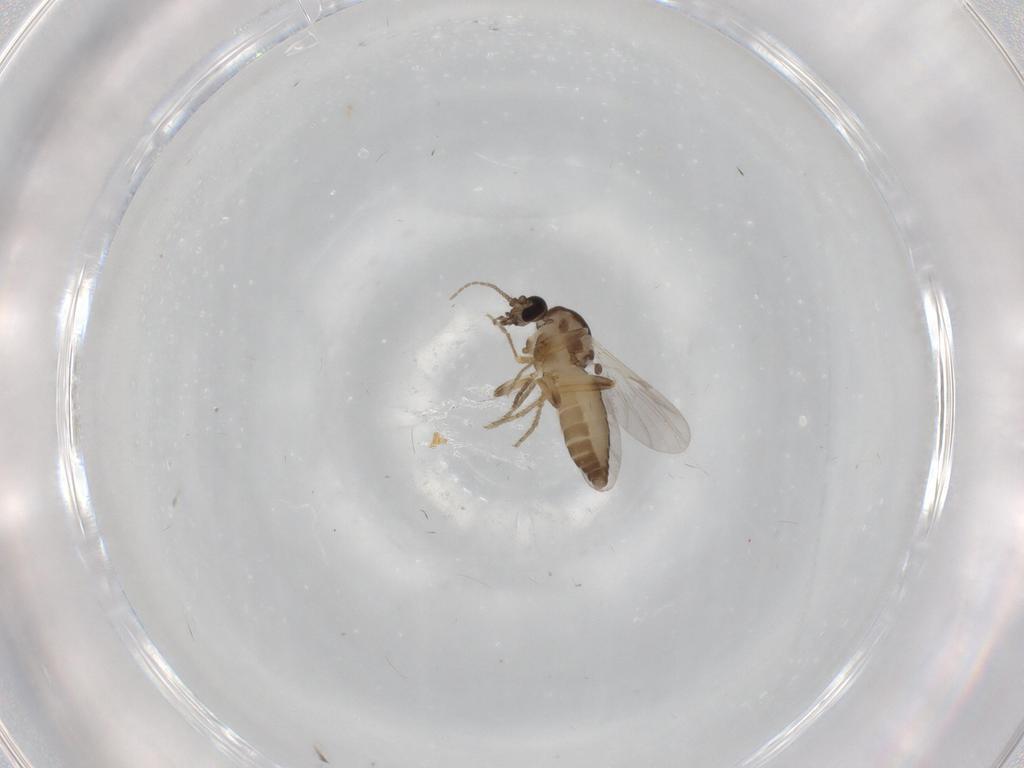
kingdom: Animalia
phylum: Arthropoda
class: Insecta
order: Diptera
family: Ceratopogonidae
